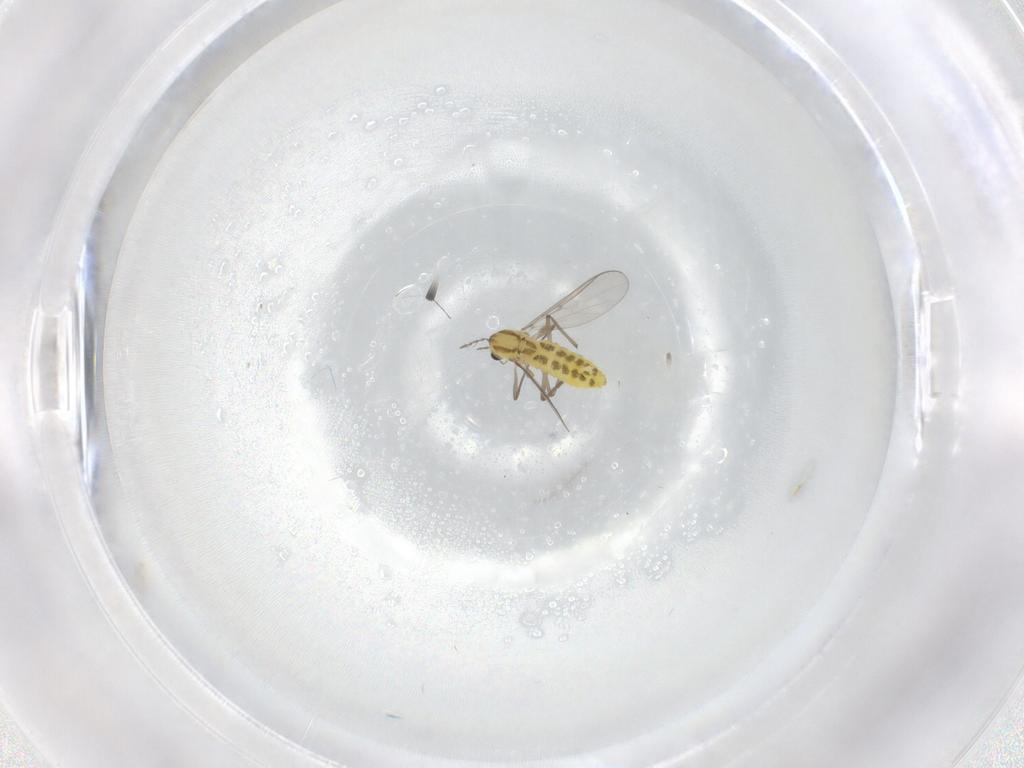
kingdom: Animalia
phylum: Arthropoda
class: Insecta
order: Diptera
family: Chironomidae
